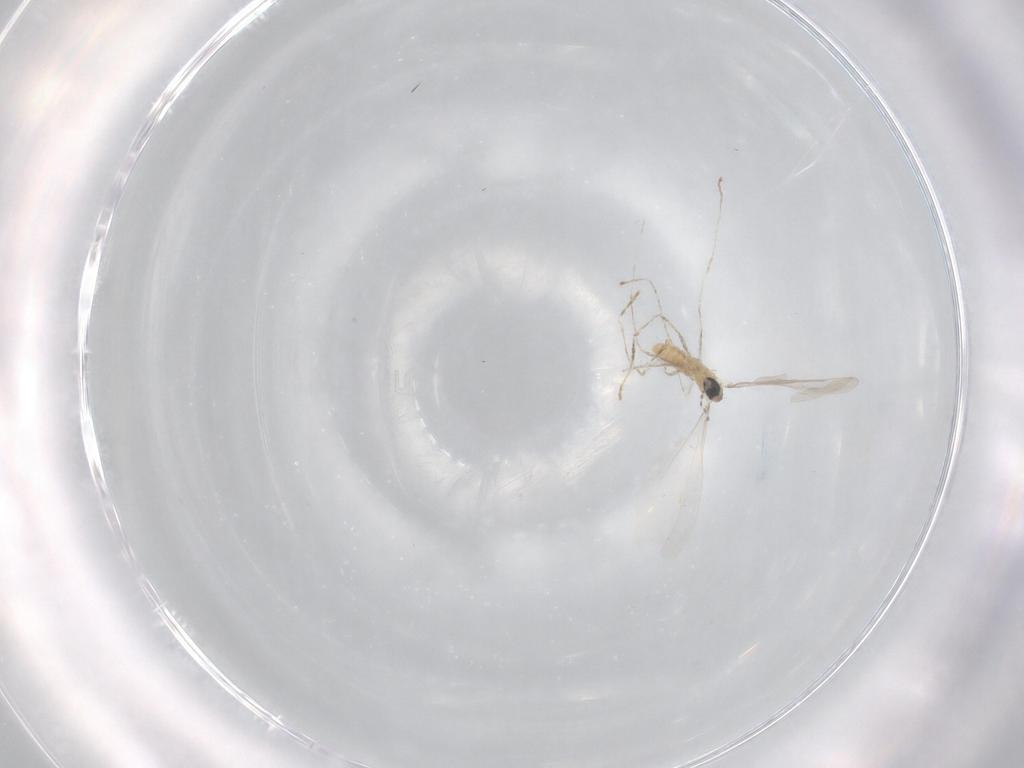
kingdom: Animalia
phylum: Arthropoda
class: Insecta
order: Diptera
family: Cecidomyiidae
